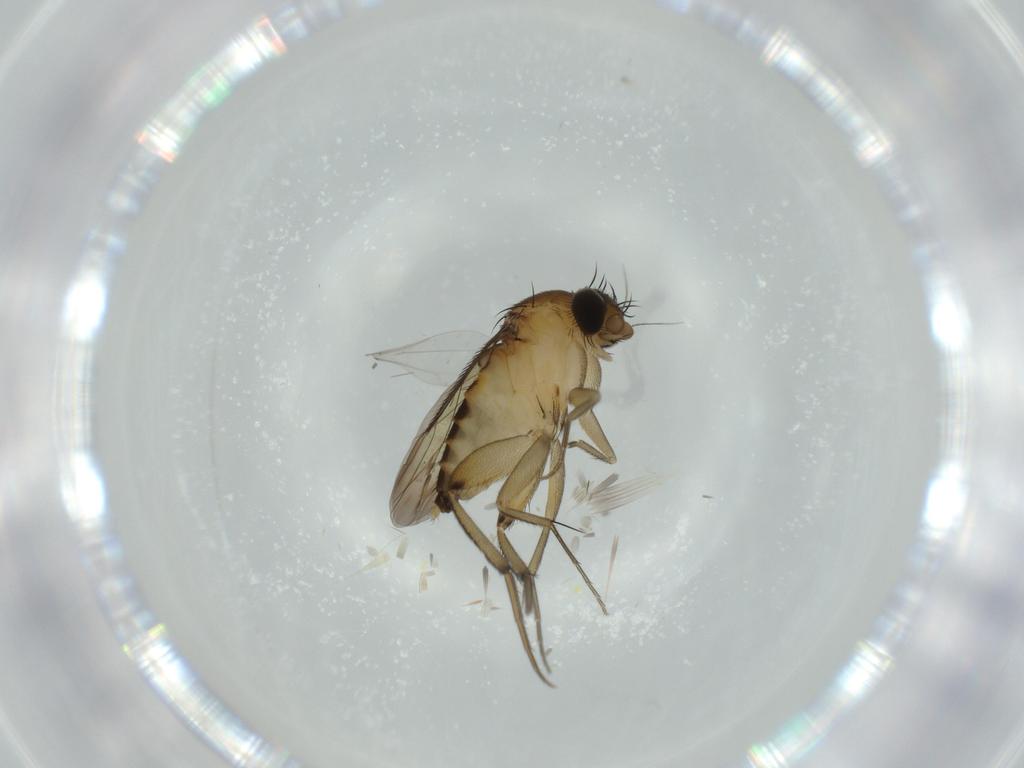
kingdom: Animalia
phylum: Arthropoda
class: Insecta
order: Diptera
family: Phoridae
